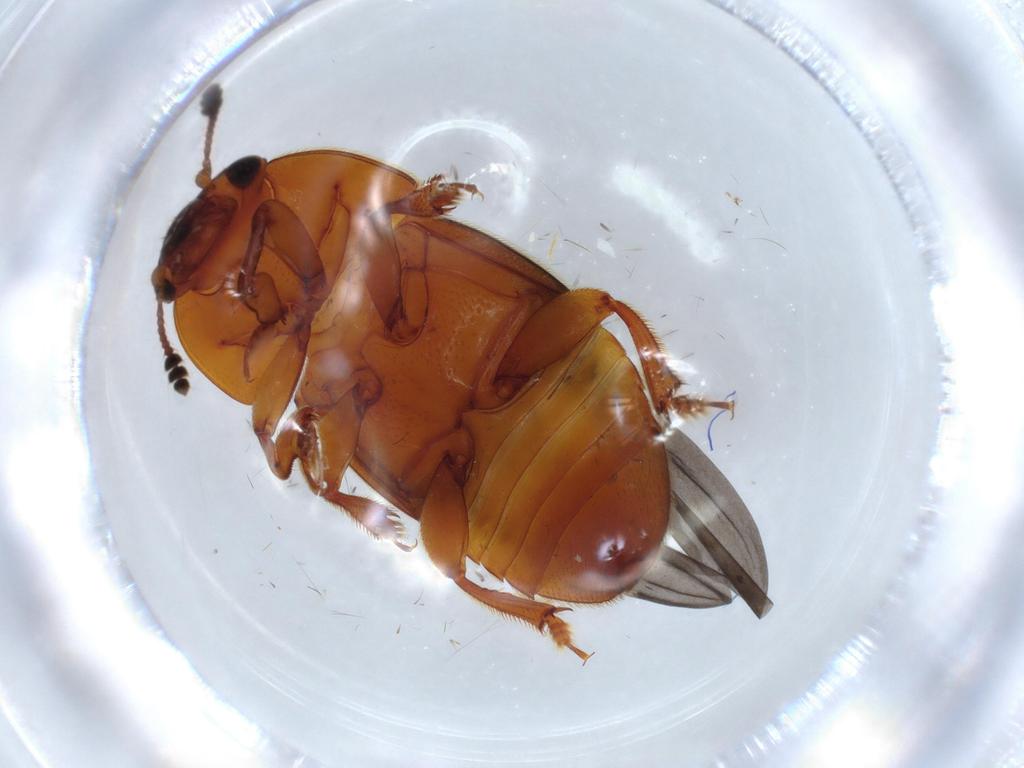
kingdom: Animalia
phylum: Arthropoda
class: Insecta
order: Coleoptera
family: Nitidulidae
